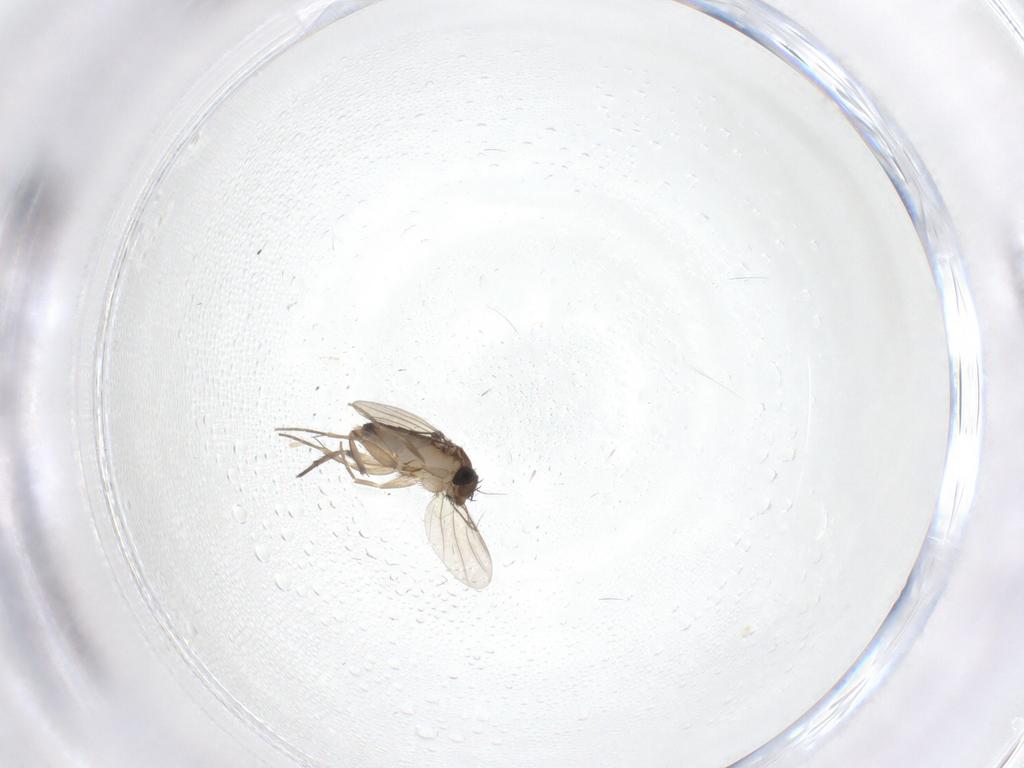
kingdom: Animalia
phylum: Arthropoda
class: Insecta
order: Diptera
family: Phoridae
